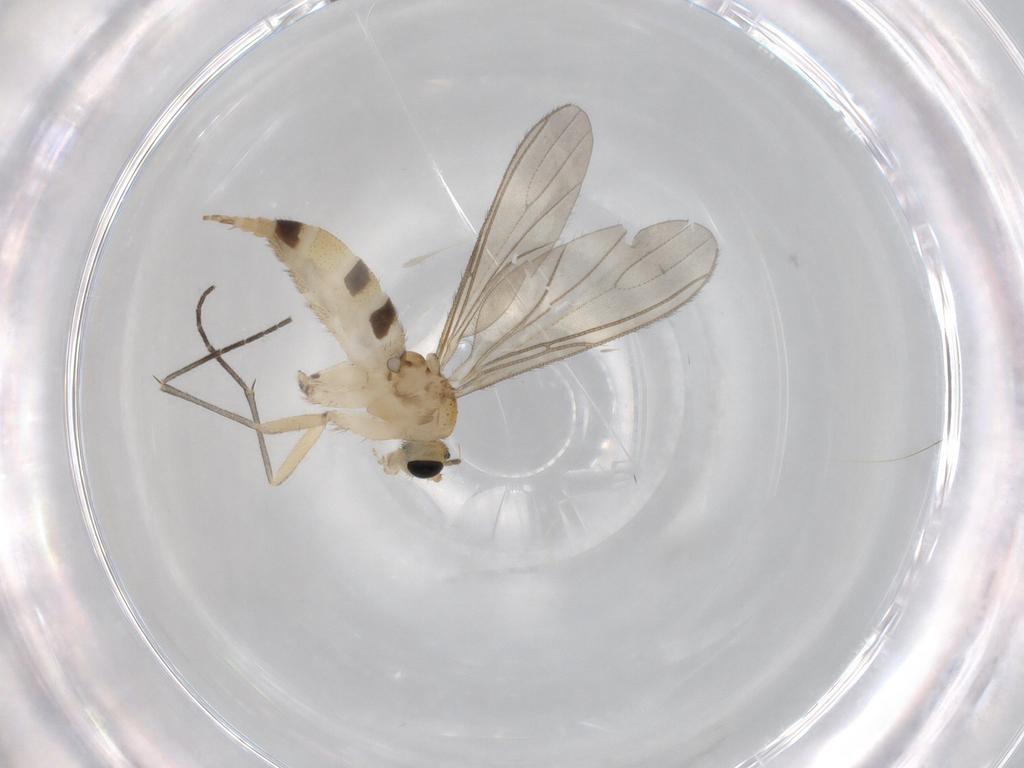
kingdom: Animalia
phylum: Arthropoda
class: Insecta
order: Diptera
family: Sciaridae
